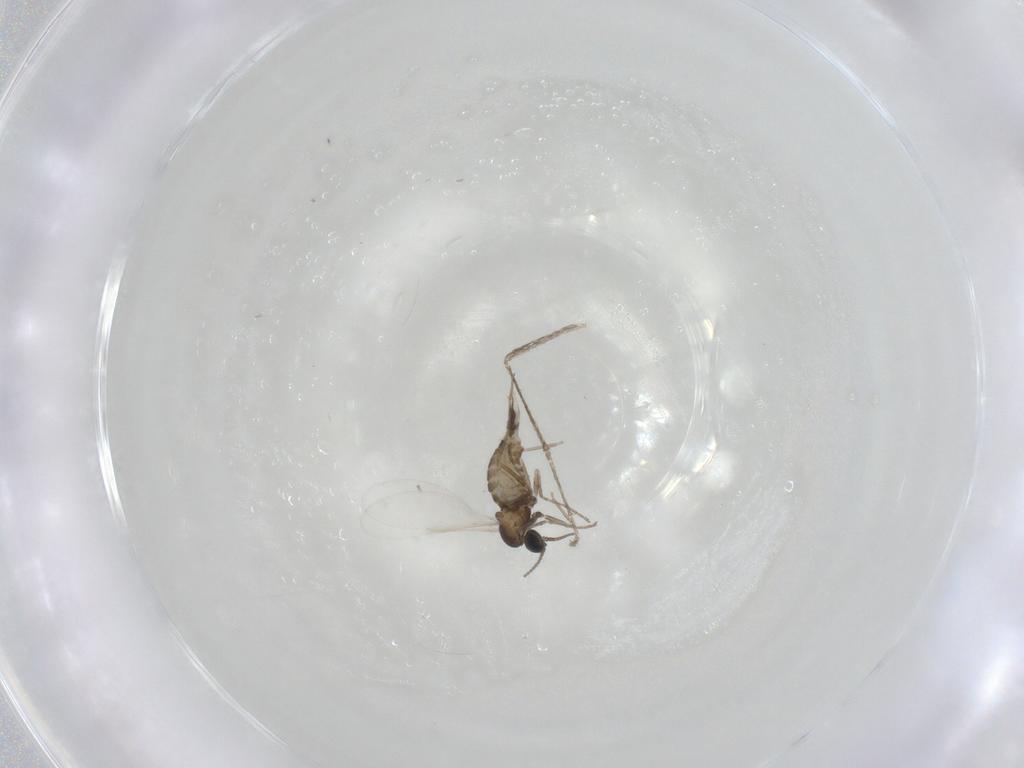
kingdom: Animalia
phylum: Arthropoda
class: Insecta
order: Diptera
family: Cecidomyiidae
